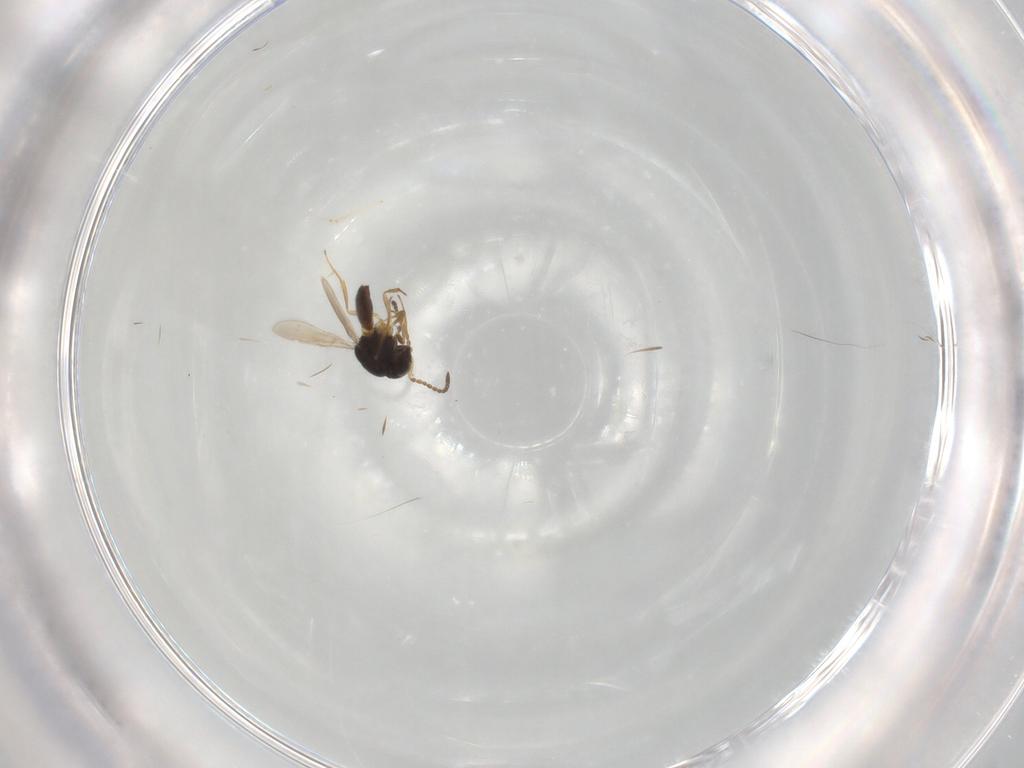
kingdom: Animalia
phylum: Arthropoda
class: Insecta
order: Hymenoptera
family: Scelionidae
